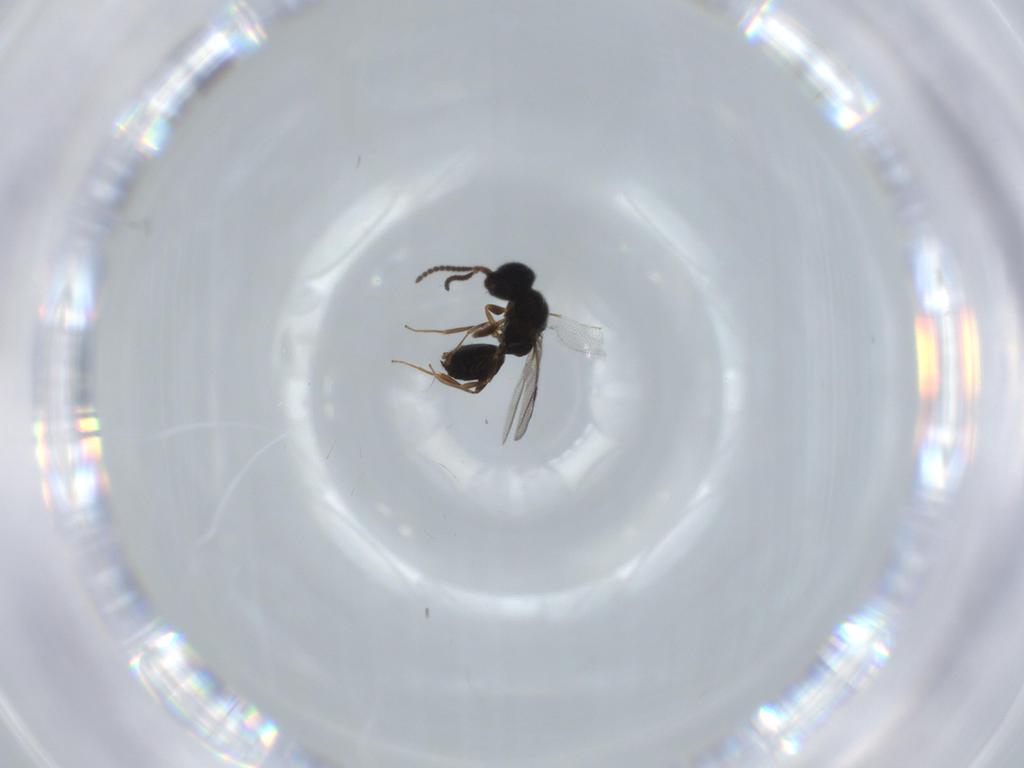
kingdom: Animalia
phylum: Arthropoda
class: Insecta
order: Hymenoptera
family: Bethylidae
